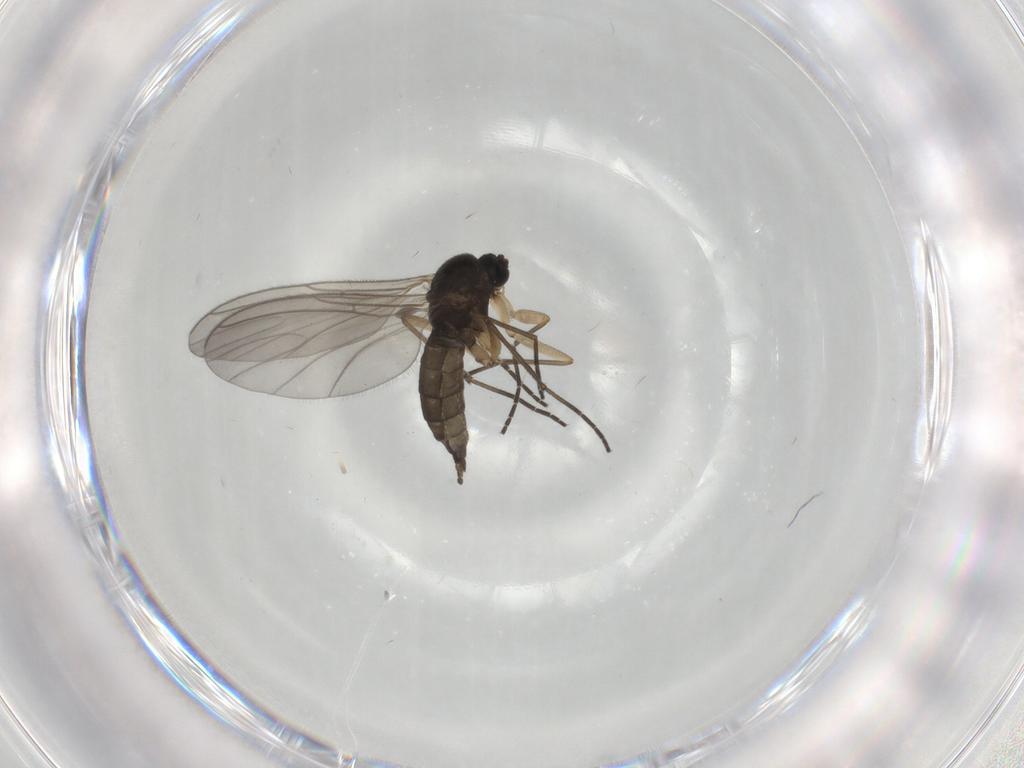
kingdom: Animalia
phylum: Arthropoda
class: Insecta
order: Diptera
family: Sciaridae
